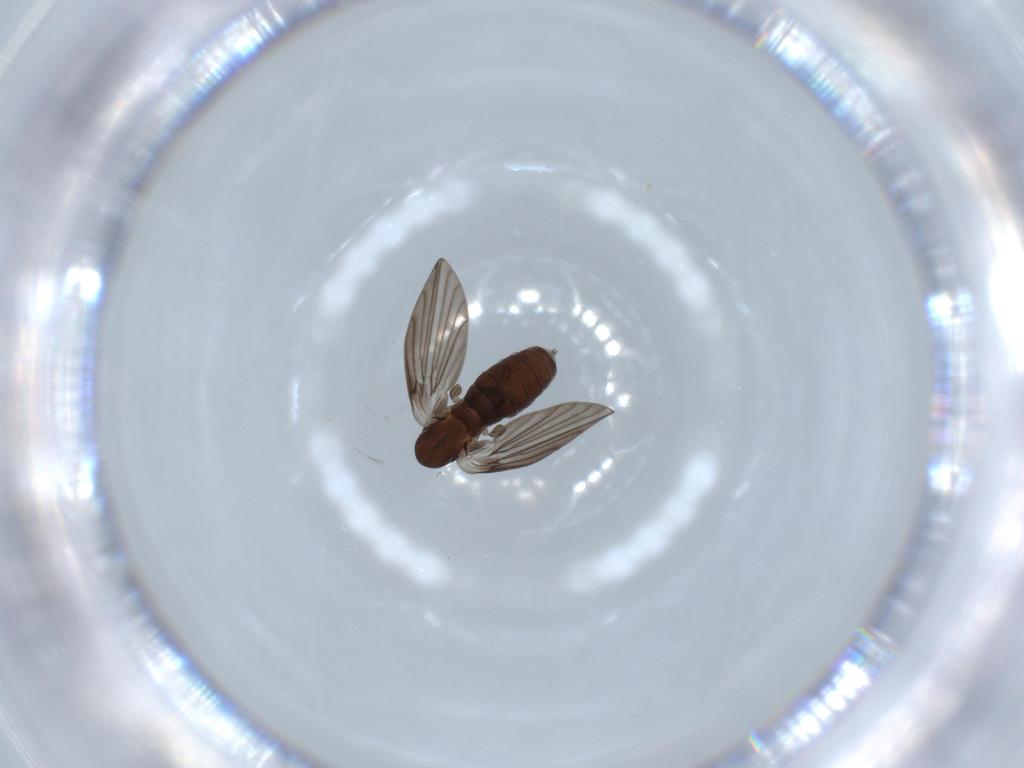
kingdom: Animalia
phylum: Arthropoda
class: Insecta
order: Diptera
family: Psychodidae
